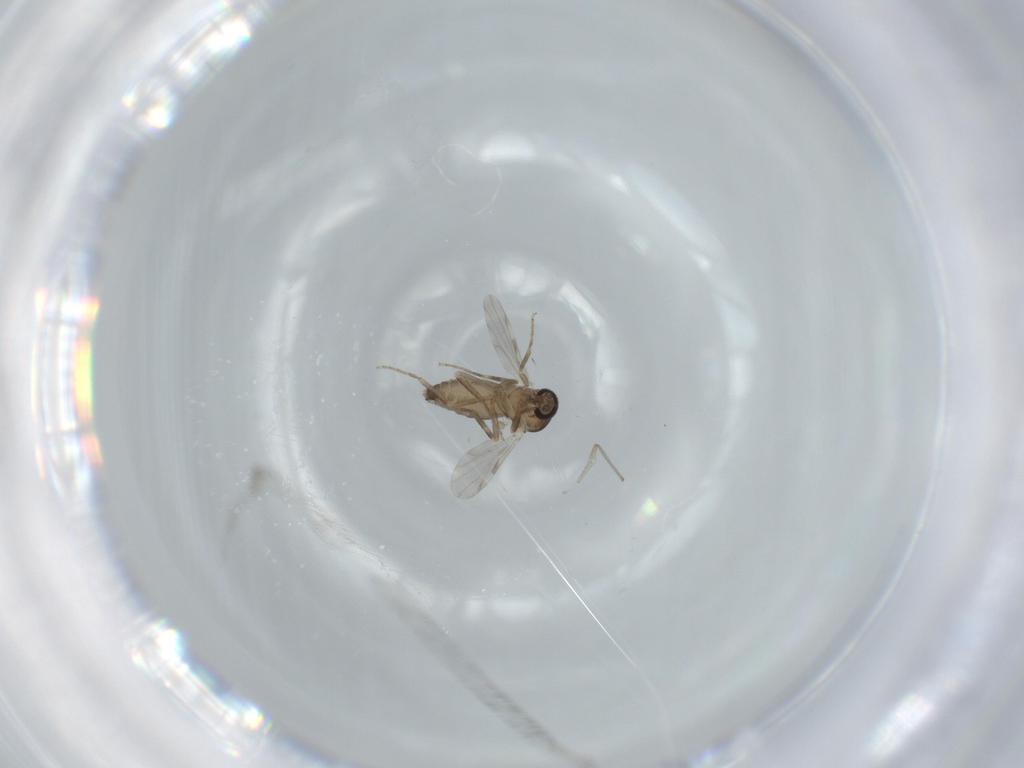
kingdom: Animalia
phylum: Arthropoda
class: Insecta
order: Diptera
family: Ceratopogonidae
